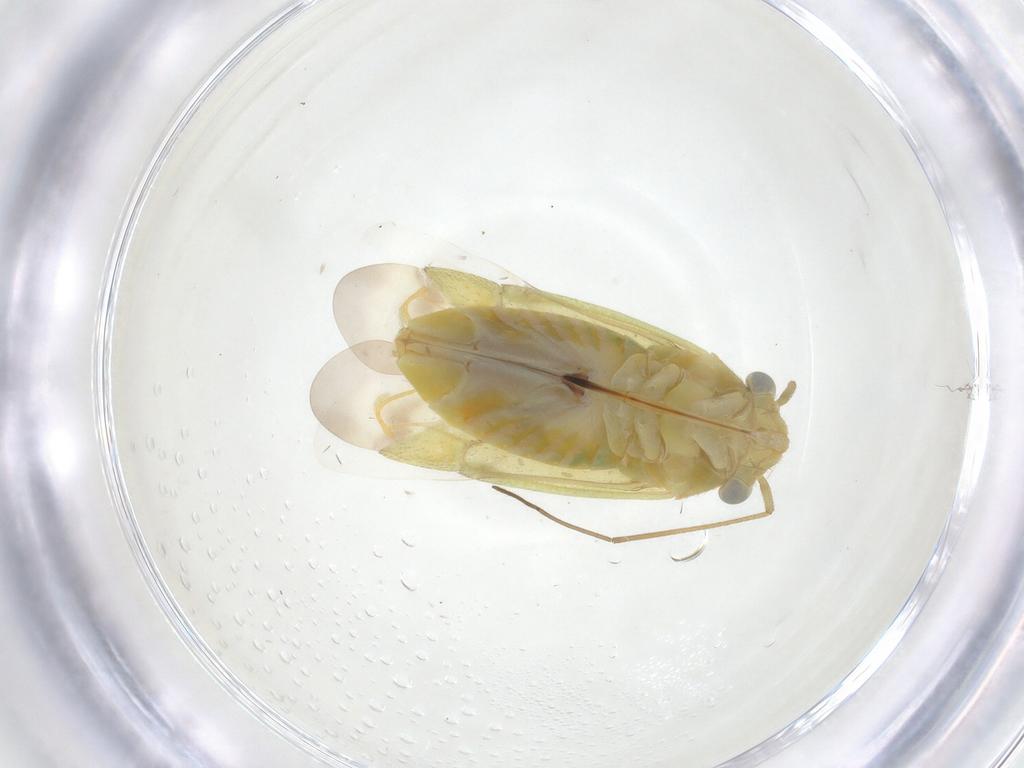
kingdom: Animalia
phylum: Arthropoda
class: Insecta
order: Hemiptera
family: Miridae
